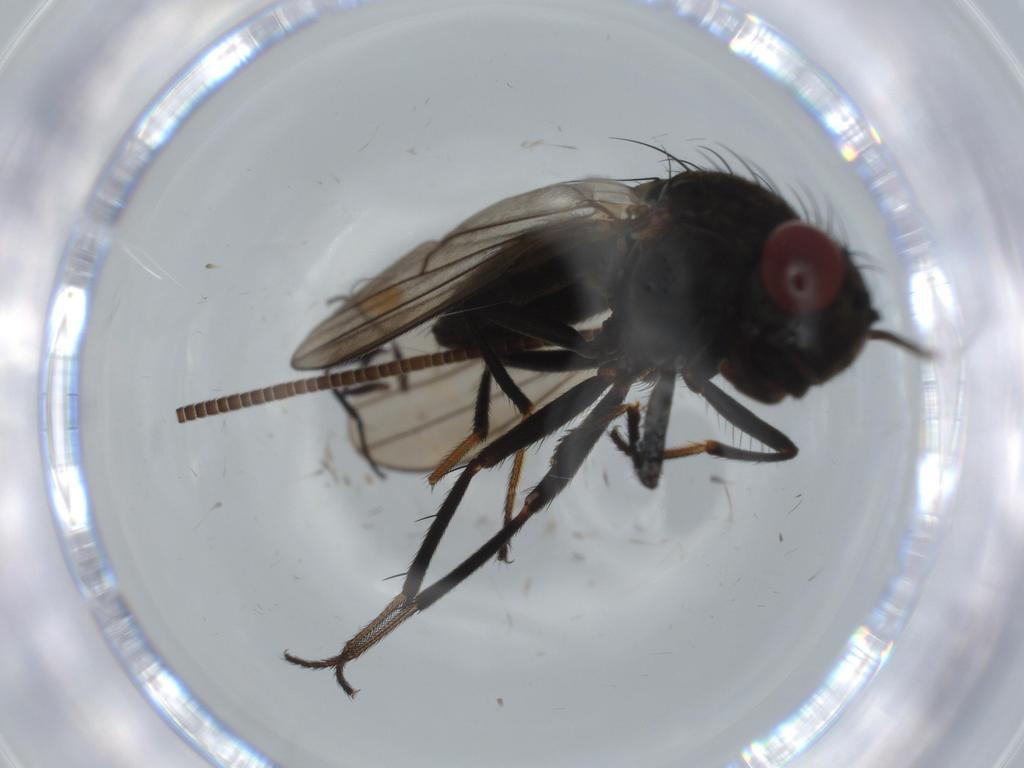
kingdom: Animalia
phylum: Arthropoda
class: Insecta
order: Diptera
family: Ephydridae
